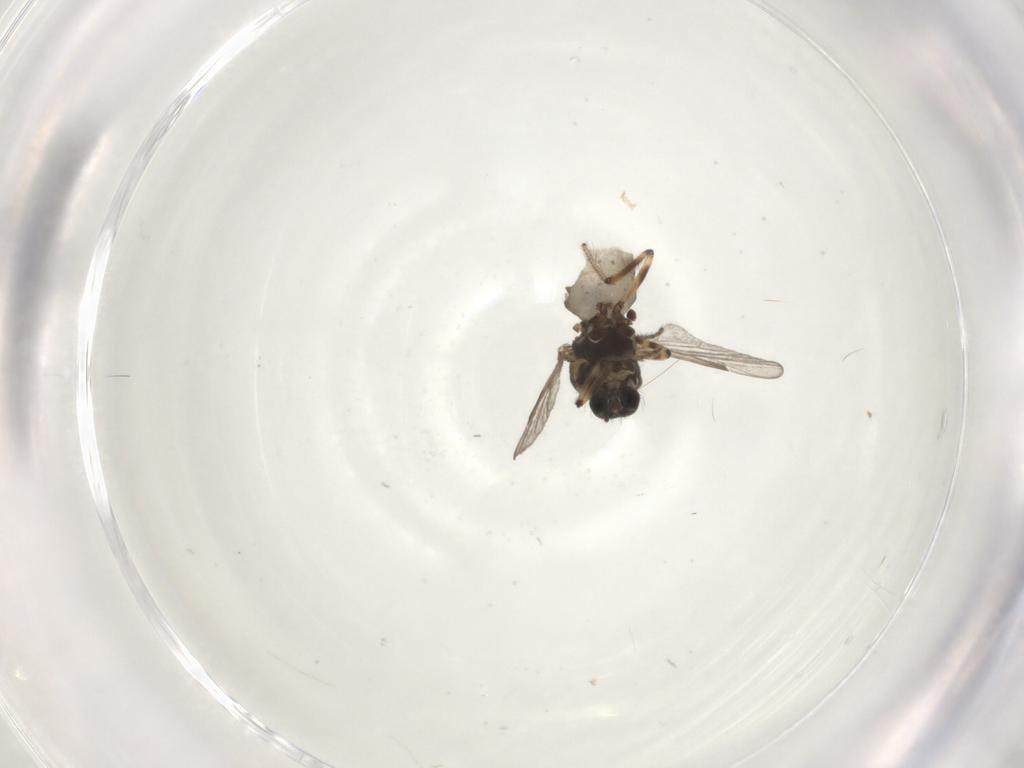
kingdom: Animalia
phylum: Arthropoda
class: Insecta
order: Diptera
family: Ceratopogonidae
